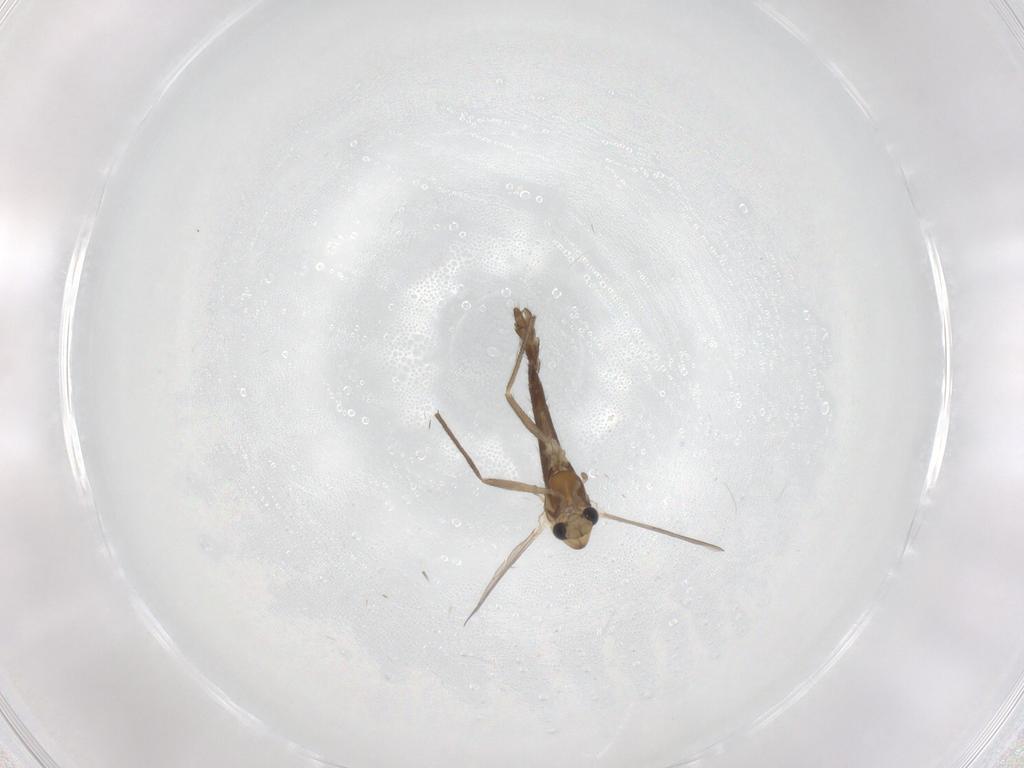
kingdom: Animalia
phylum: Arthropoda
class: Insecta
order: Diptera
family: Chironomidae
